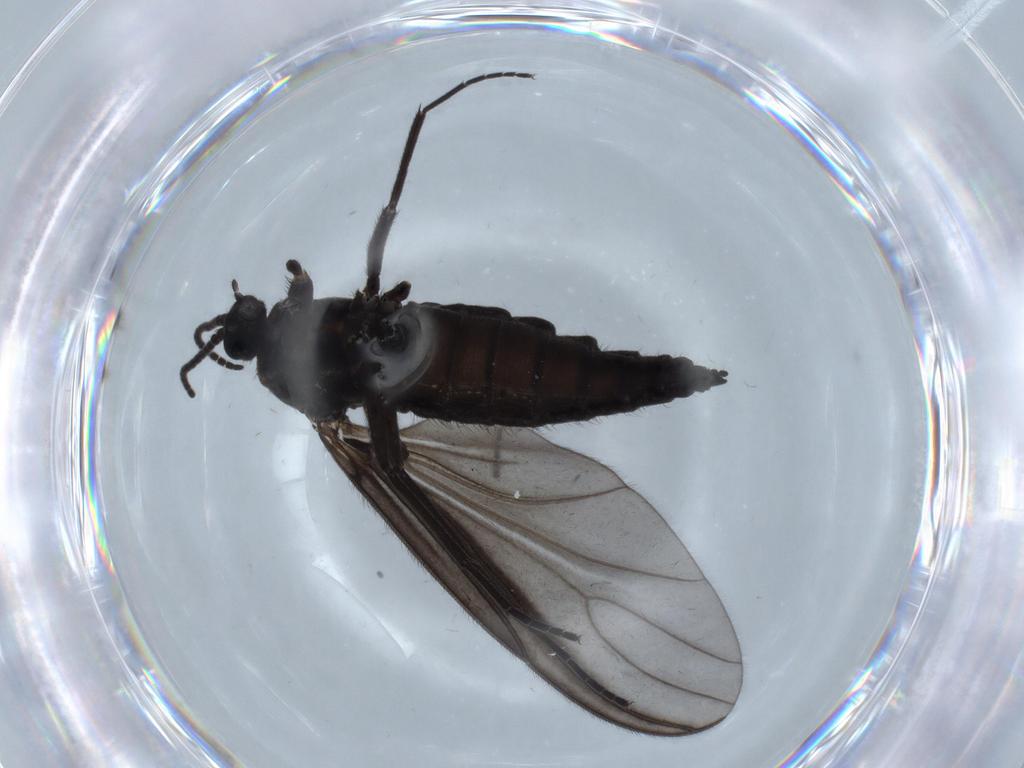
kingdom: Animalia
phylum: Arthropoda
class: Insecta
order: Diptera
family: Sciaridae
